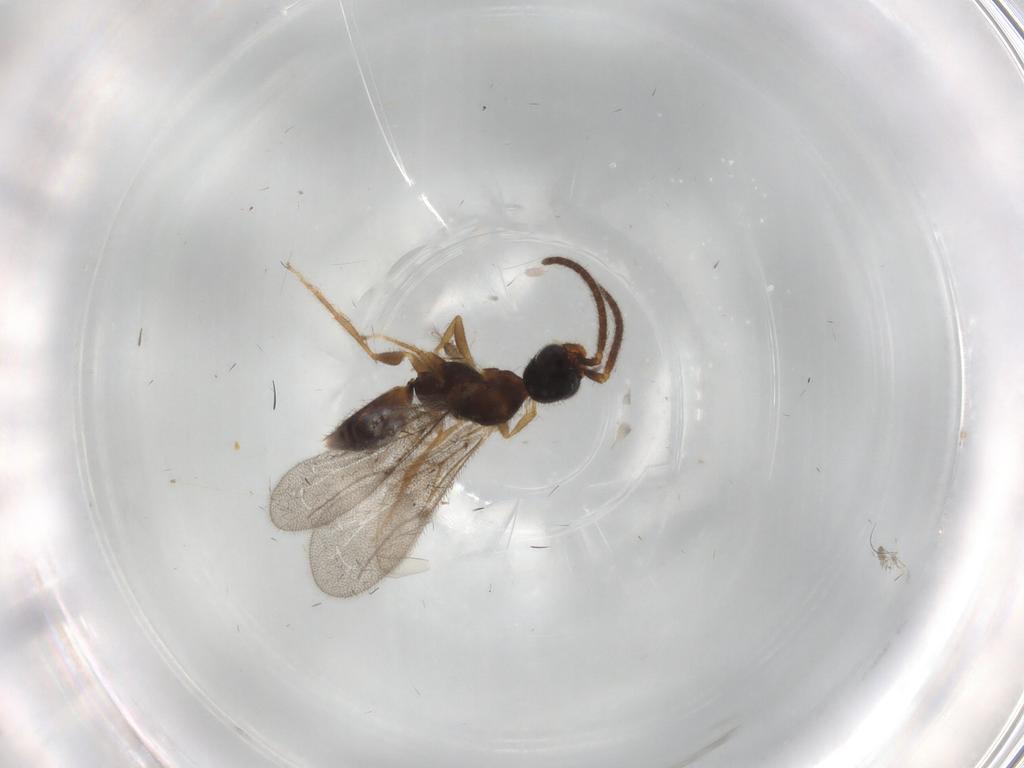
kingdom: Animalia
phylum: Arthropoda
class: Insecta
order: Hymenoptera
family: Bethylidae
